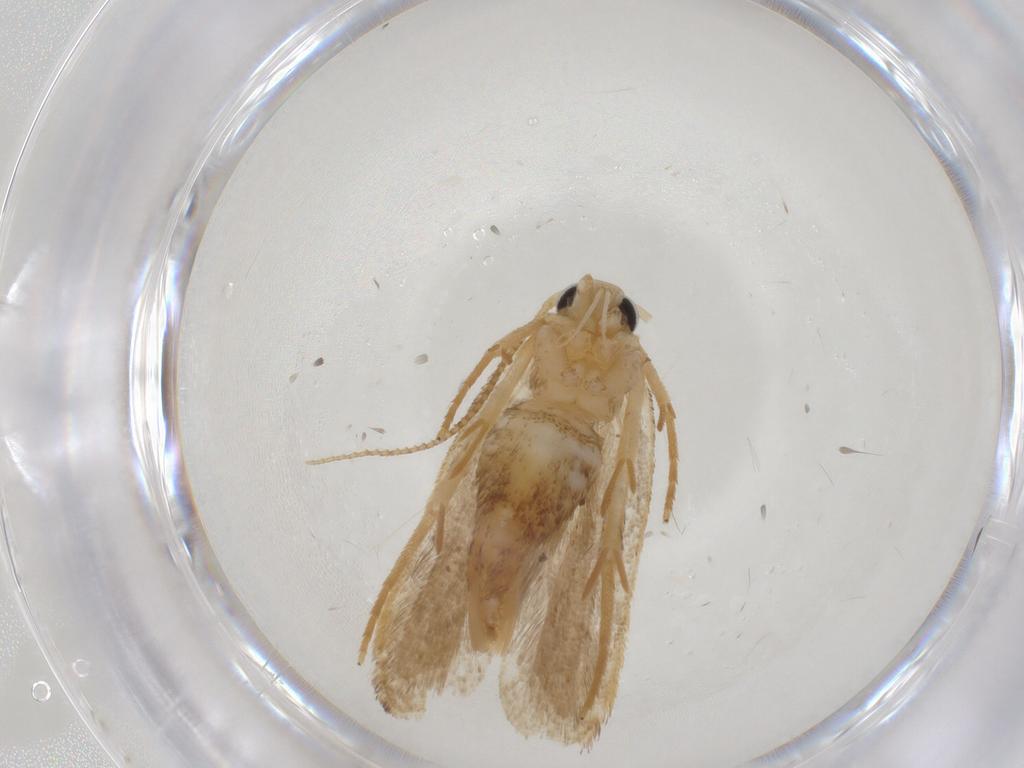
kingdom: Animalia
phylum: Arthropoda
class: Insecta
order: Lepidoptera
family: Gelechiidae
